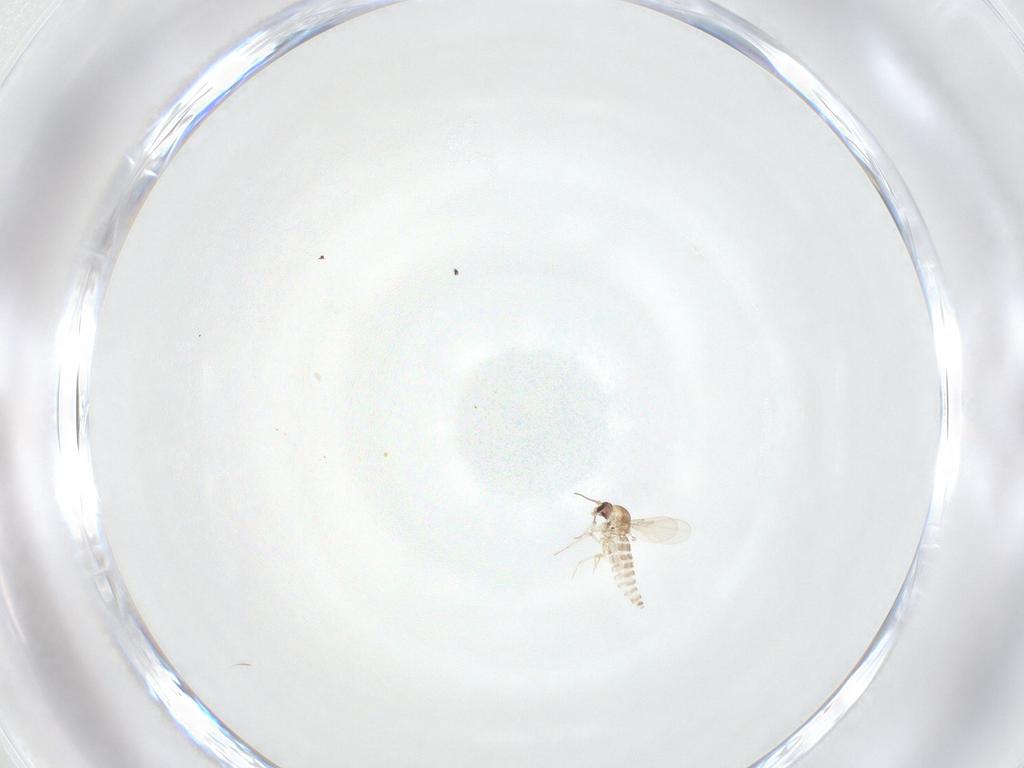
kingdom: Animalia
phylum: Arthropoda
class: Insecta
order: Diptera
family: Ceratopogonidae
